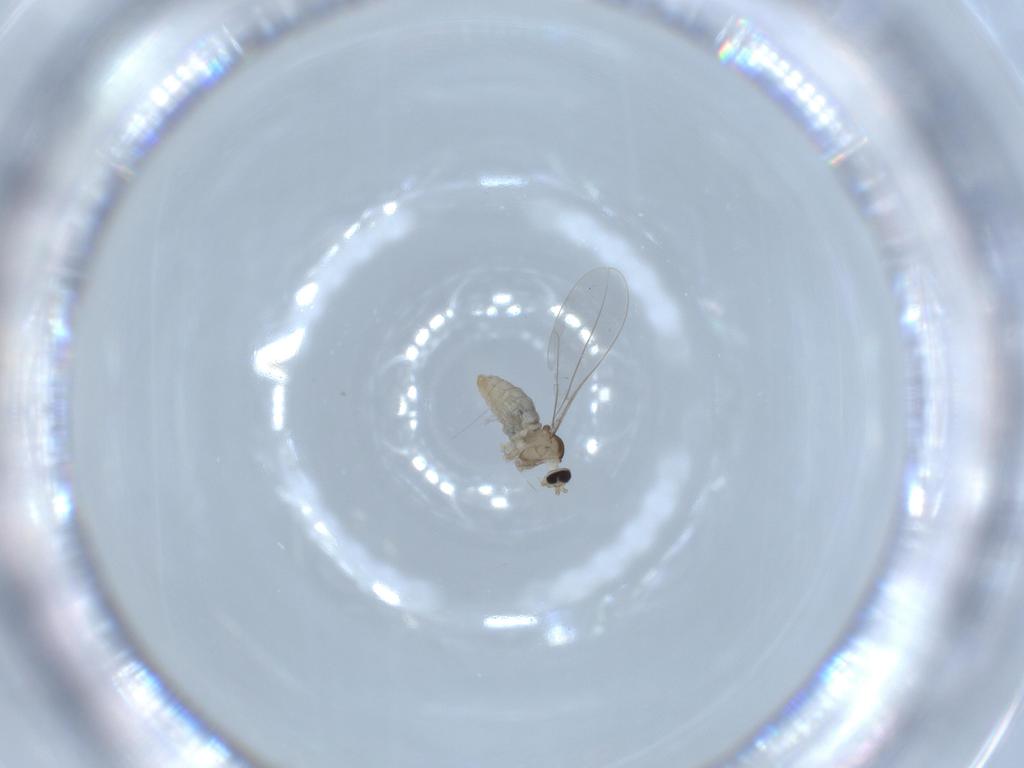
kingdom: Animalia
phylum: Arthropoda
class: Insecta
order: Diptera
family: Cecidomyiidae
